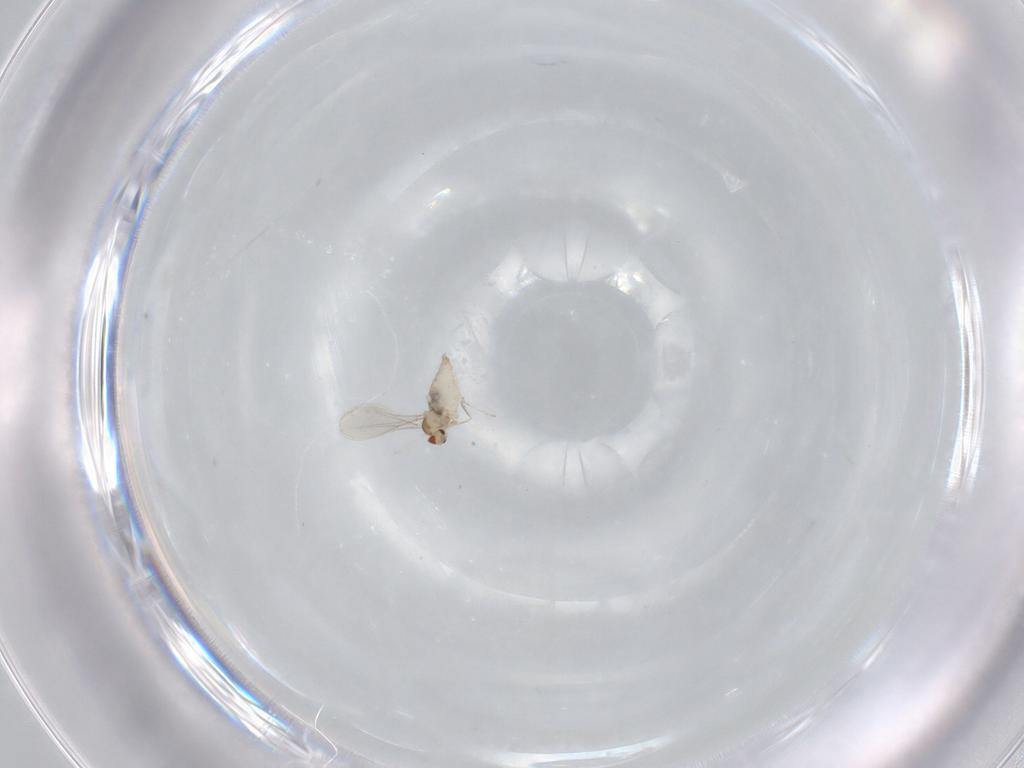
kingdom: Animalia
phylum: Arthropoda
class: Insecta
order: Diptera
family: Cecidomyiidae
